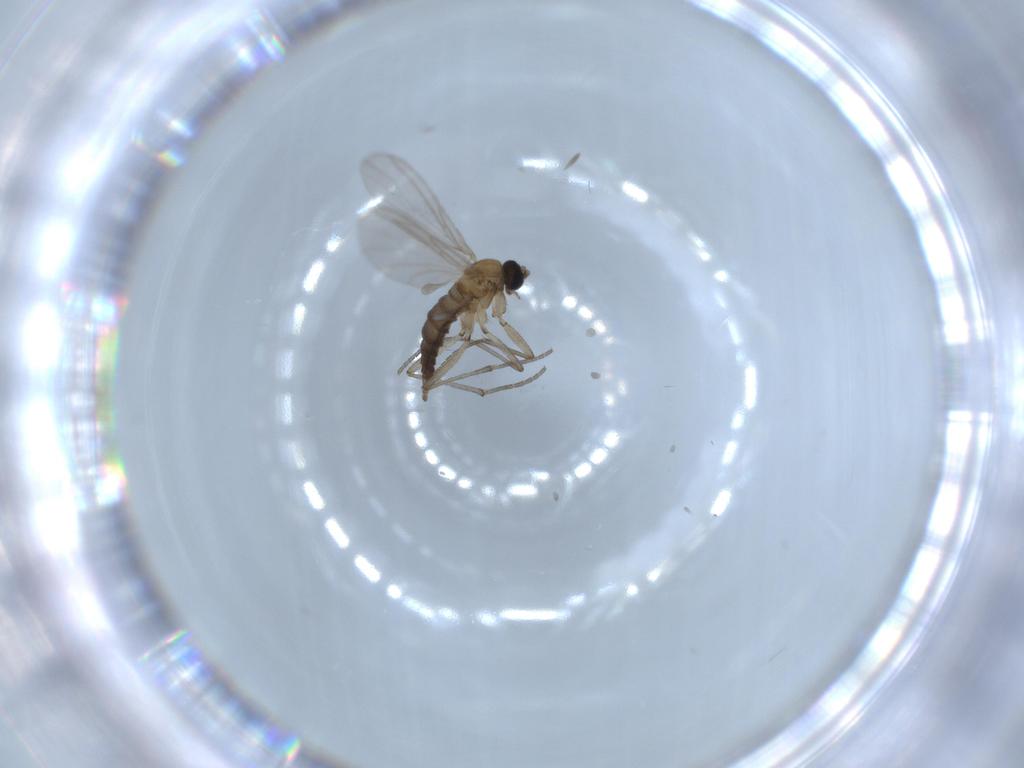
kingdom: Animalia
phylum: Arthropoda
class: Insecta
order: Diptera
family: Sciaridae
